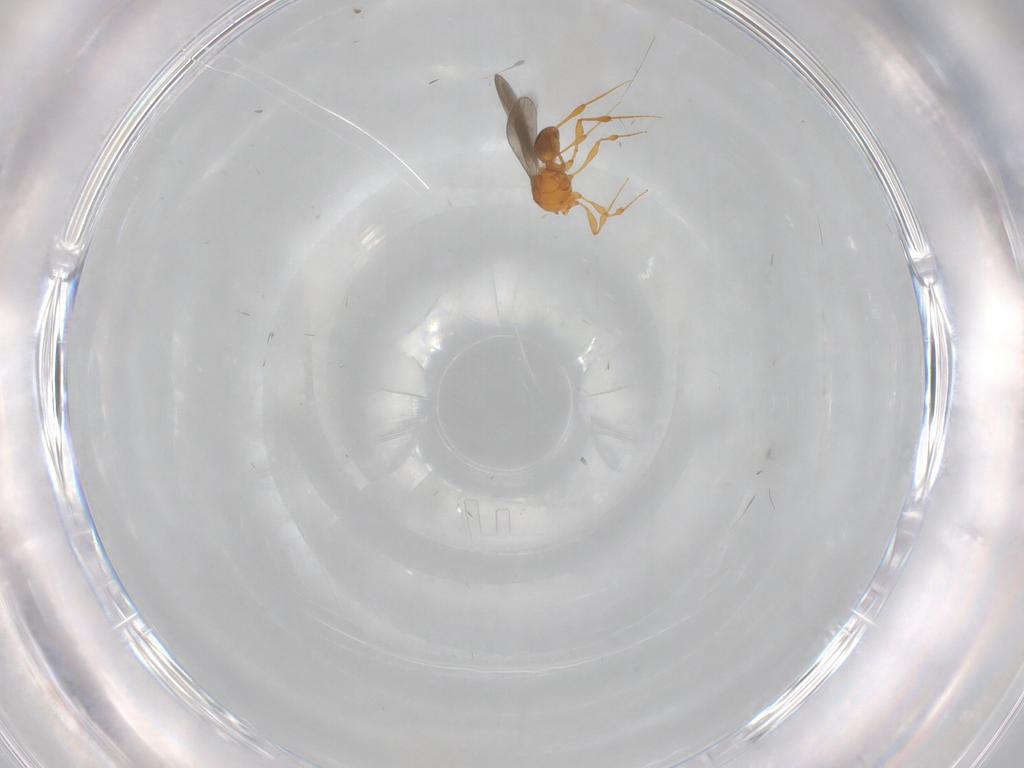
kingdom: Animalia
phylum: Arthropoda
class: Insecta
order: Hymenoptera
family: Platygastridae
